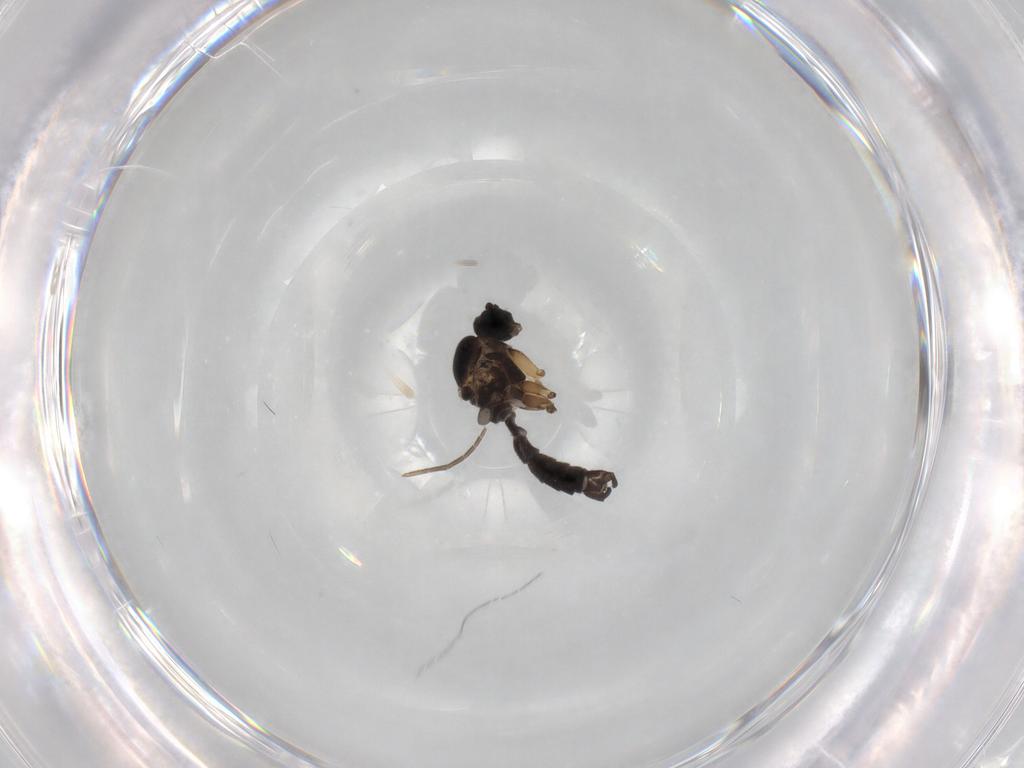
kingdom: Animalia
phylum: Arthropoda
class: Insecta
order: Diptera
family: Sciaridae
